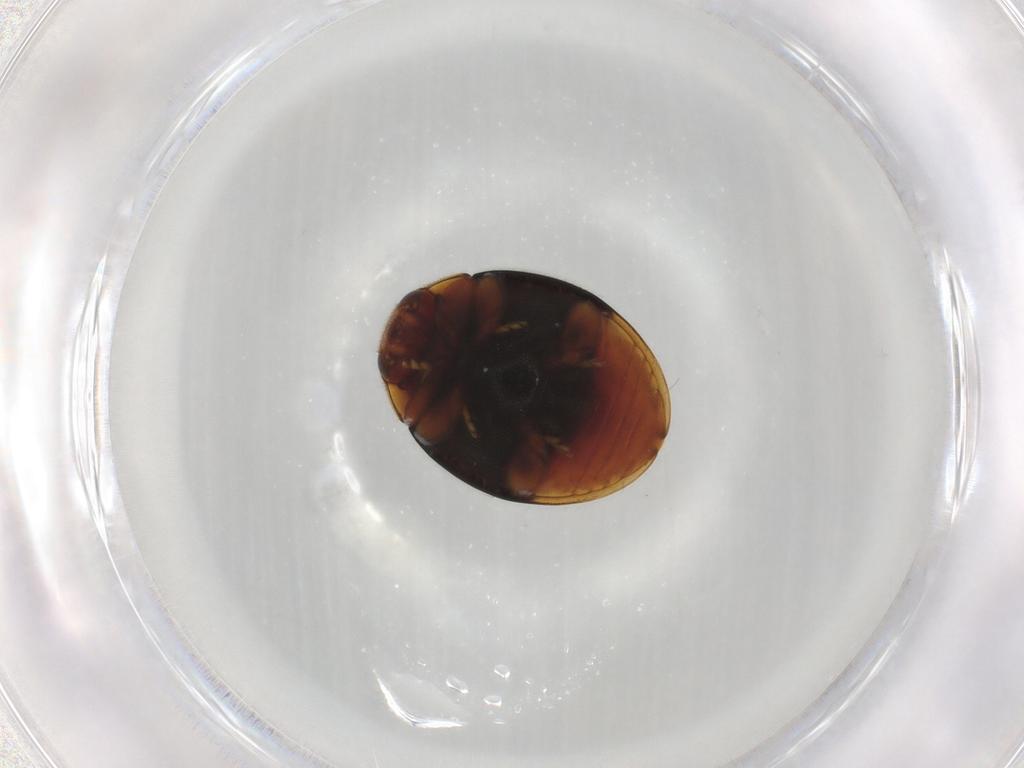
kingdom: Animalia
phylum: Arthropoda
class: Insecta
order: Coleoptera
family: Coccinellidae
